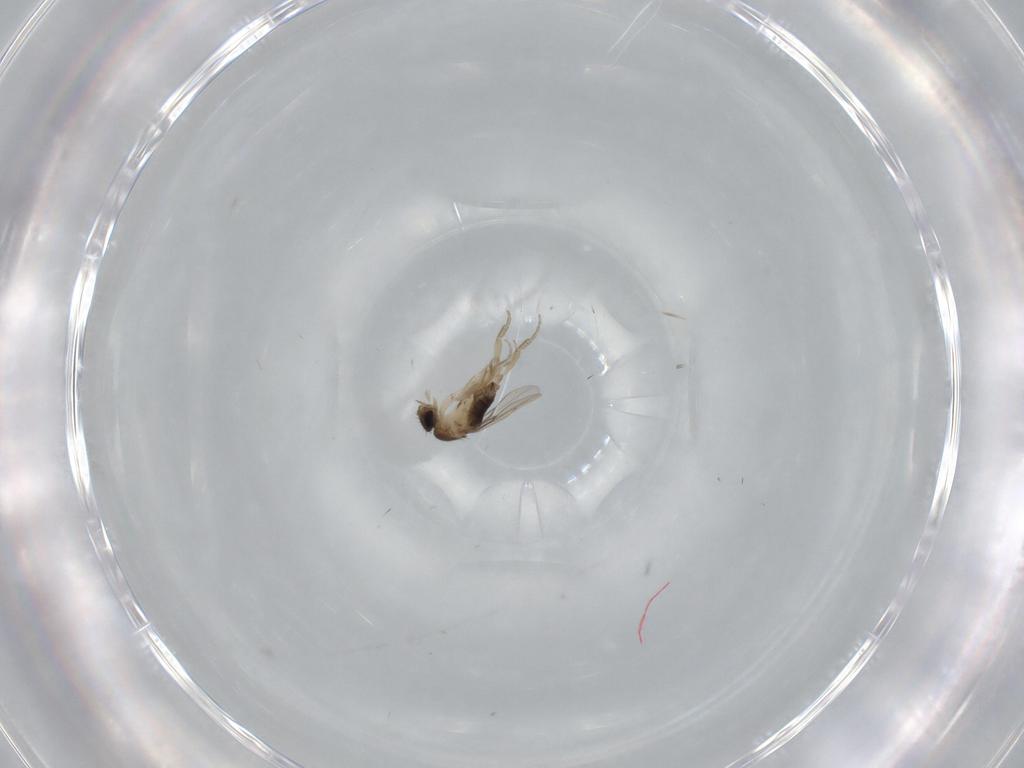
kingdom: Animalia
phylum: Arthropoda
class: Insecta
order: Diptera
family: Phoridae
